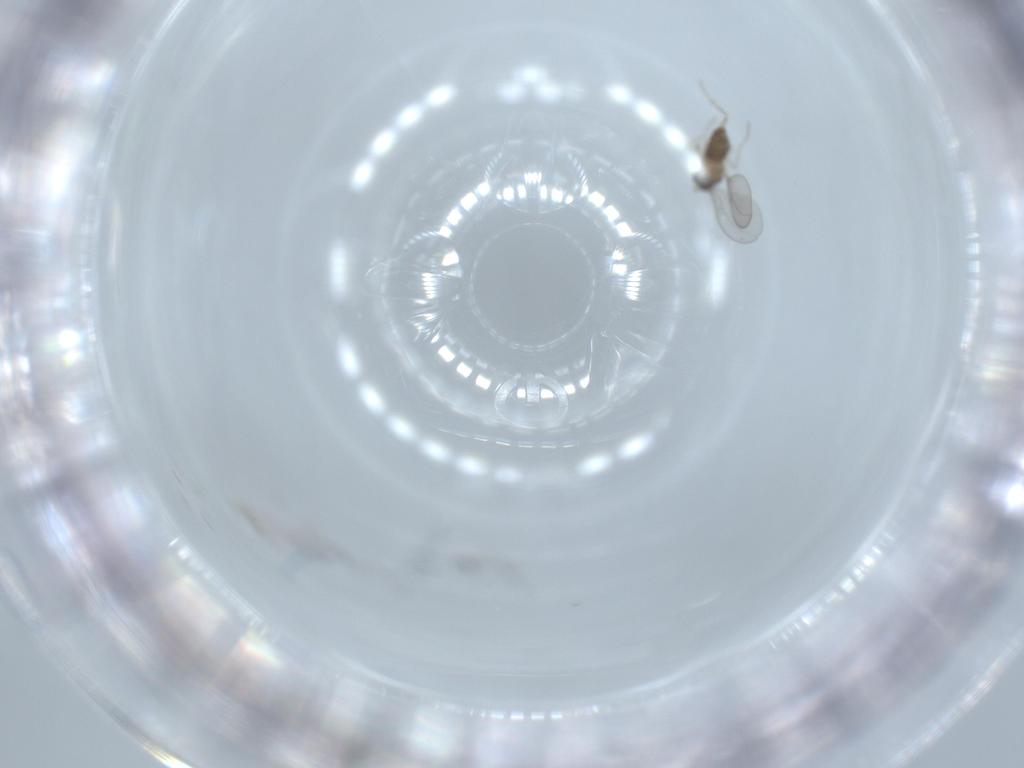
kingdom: Animalia
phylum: Arthropoda
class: Insecta
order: Diptera
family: Cecidomyiidae
